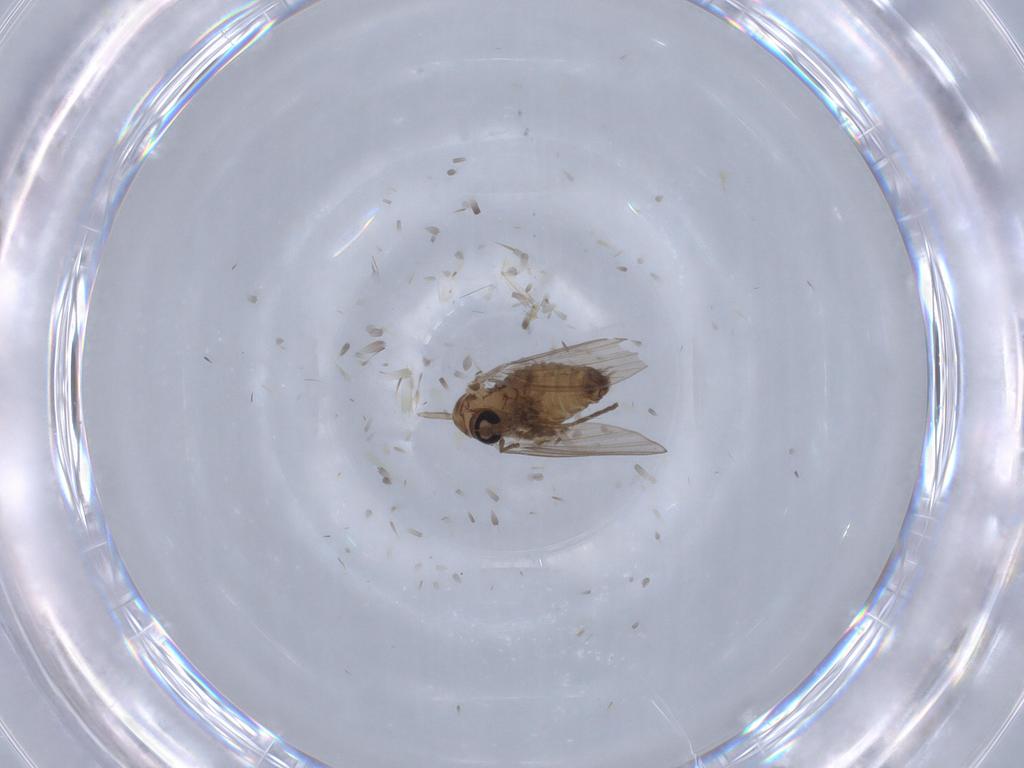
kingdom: Animalia
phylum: Arthropoda
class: Insecta
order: Diptera
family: Psychodidae
